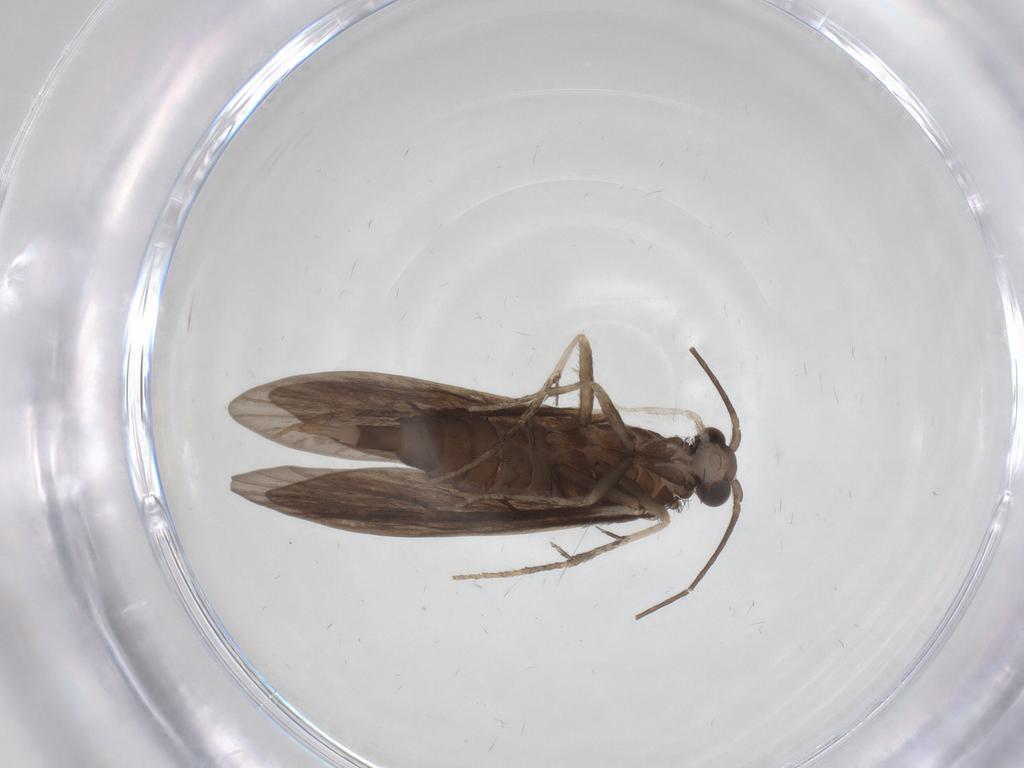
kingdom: Animalia
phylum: Arthropoda
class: Insecta
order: Trichoptera
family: Xiphocentronidae
